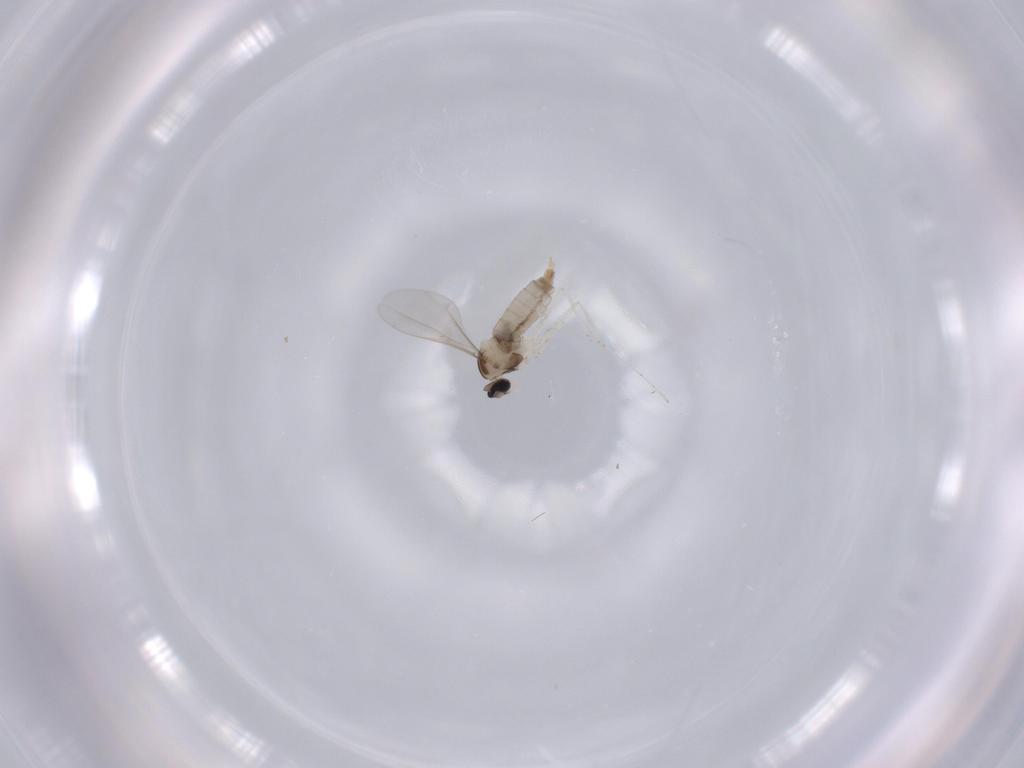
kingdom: Animalia
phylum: Arthropoda
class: Insecta
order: Diptera
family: Cecidomyiidae
